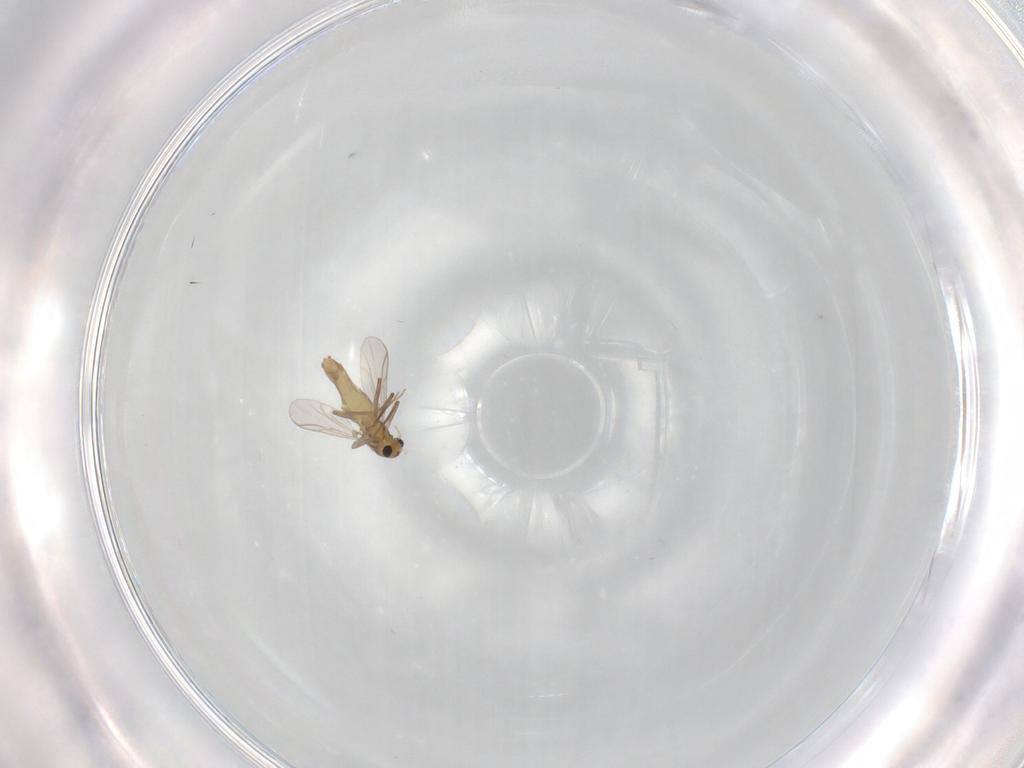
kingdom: Animalia
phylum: Arthropoda
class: Insecta
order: Diptera
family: Chironomidae
